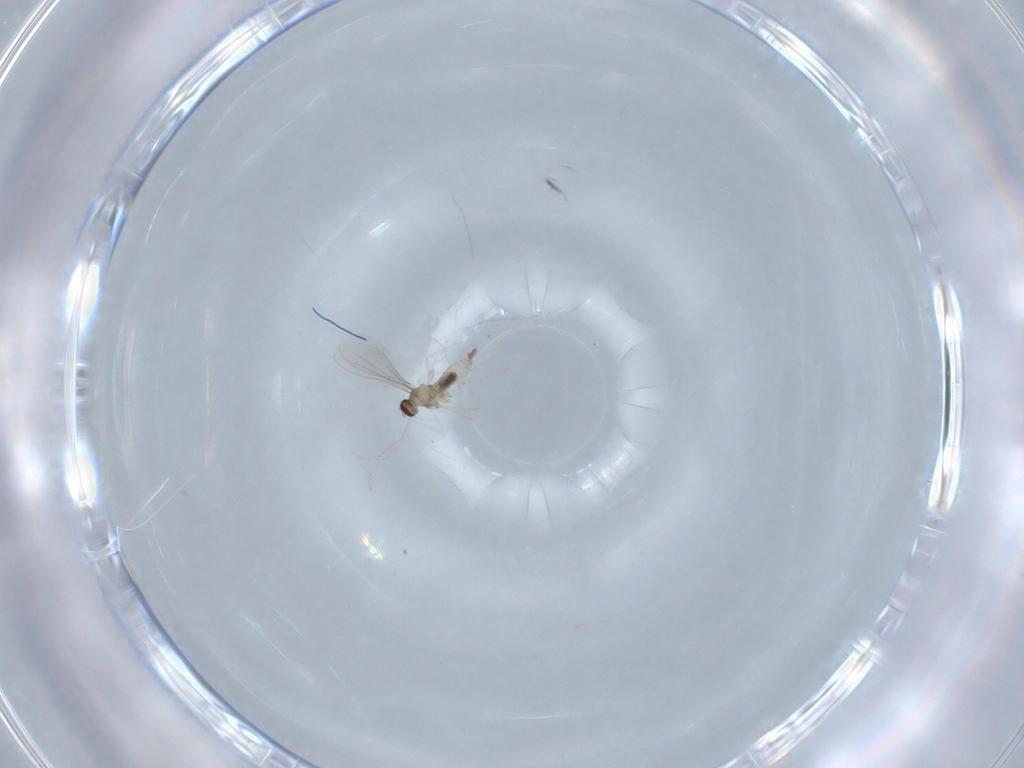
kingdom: Animalia
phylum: Arthropoda
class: Insecta
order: Diptera
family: Cecidomyiidae
